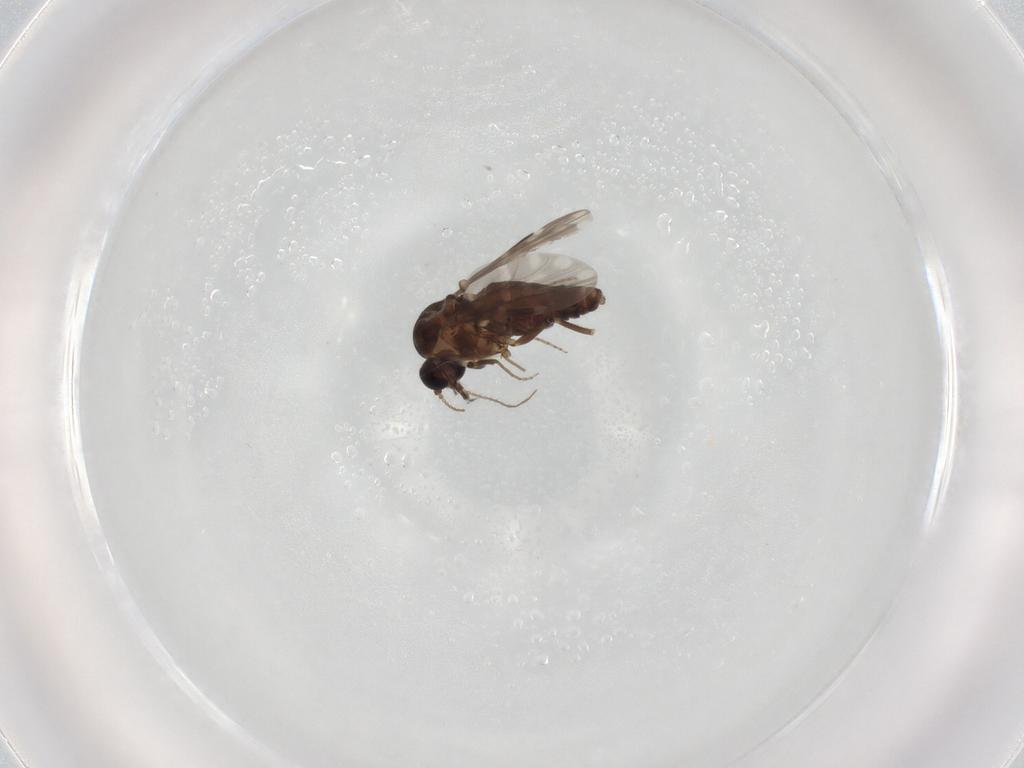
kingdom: Animalia
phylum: Arthropoda
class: Insecta
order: Diptera
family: Ceratopogonidae
